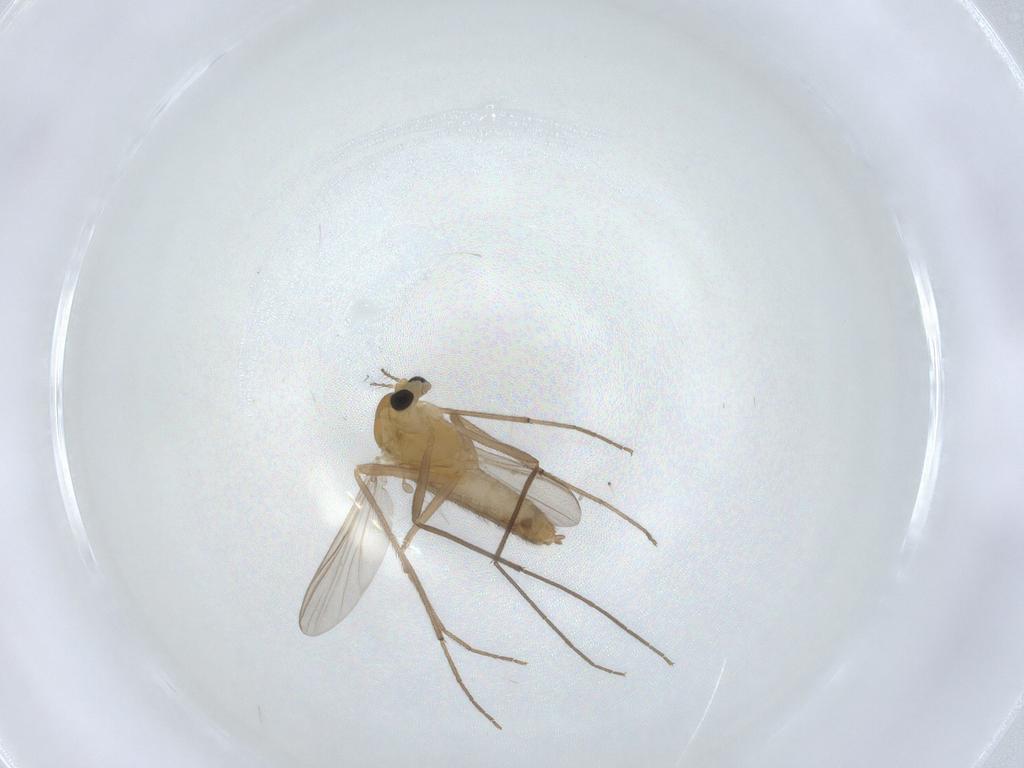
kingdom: Animalia
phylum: Arthropoda
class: Insecta
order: Diptera
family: Chironomidae
